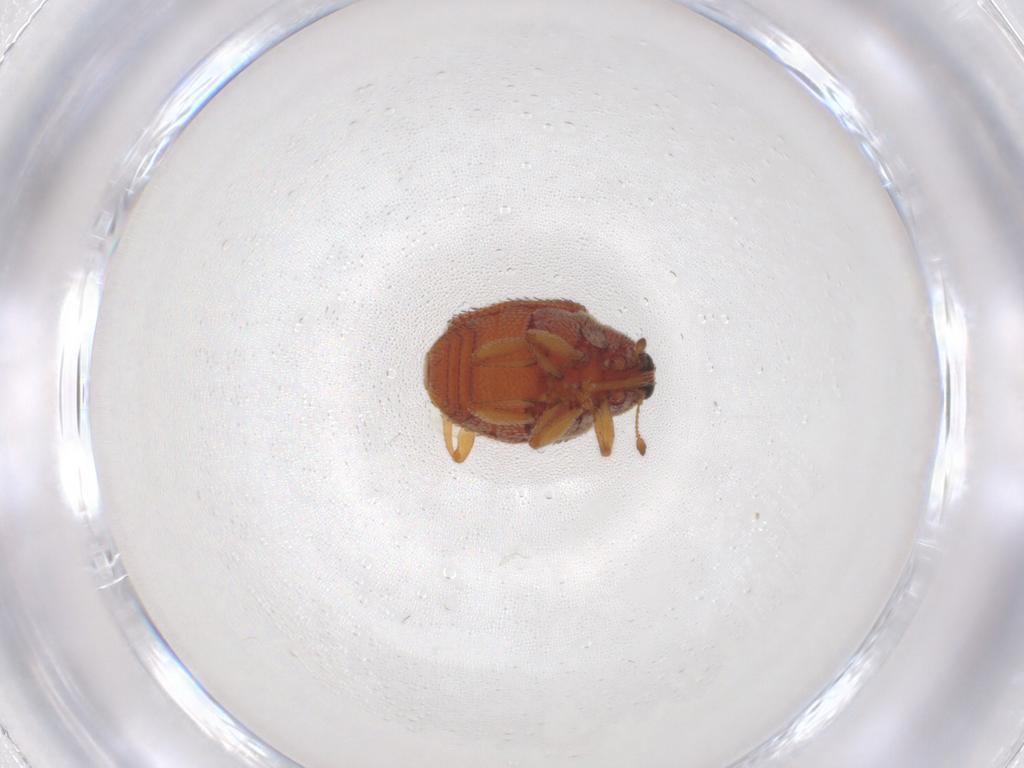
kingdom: Animalia
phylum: Arthropoda
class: Insecta
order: Coleoptera
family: Curculionidae
